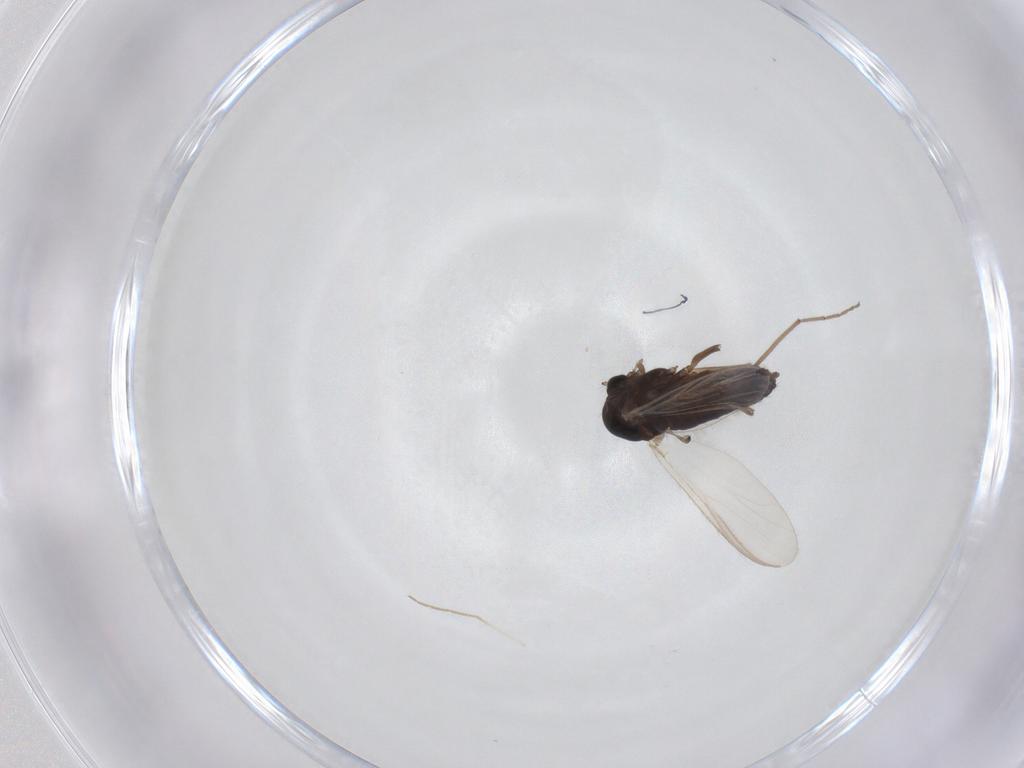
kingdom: Animalia
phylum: Arthropoda
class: Insecta
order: Diptera
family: Chironomidae
